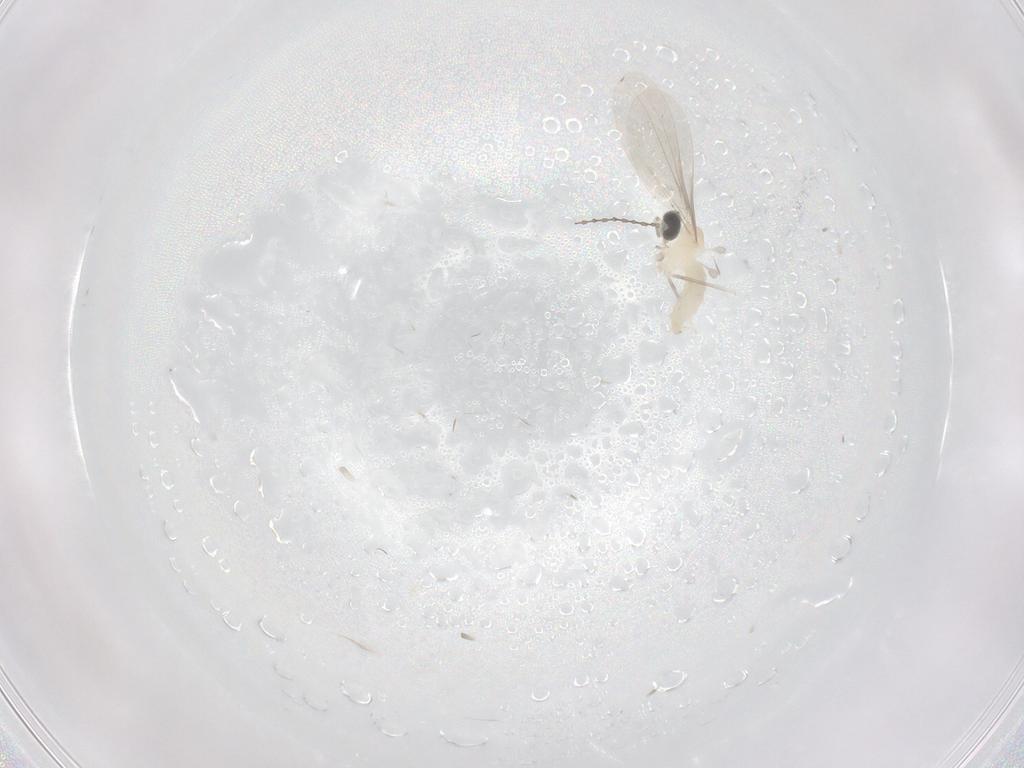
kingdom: Animalia
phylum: Arthropoda
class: Insecta
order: Diptera
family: Cecidomyiidae
